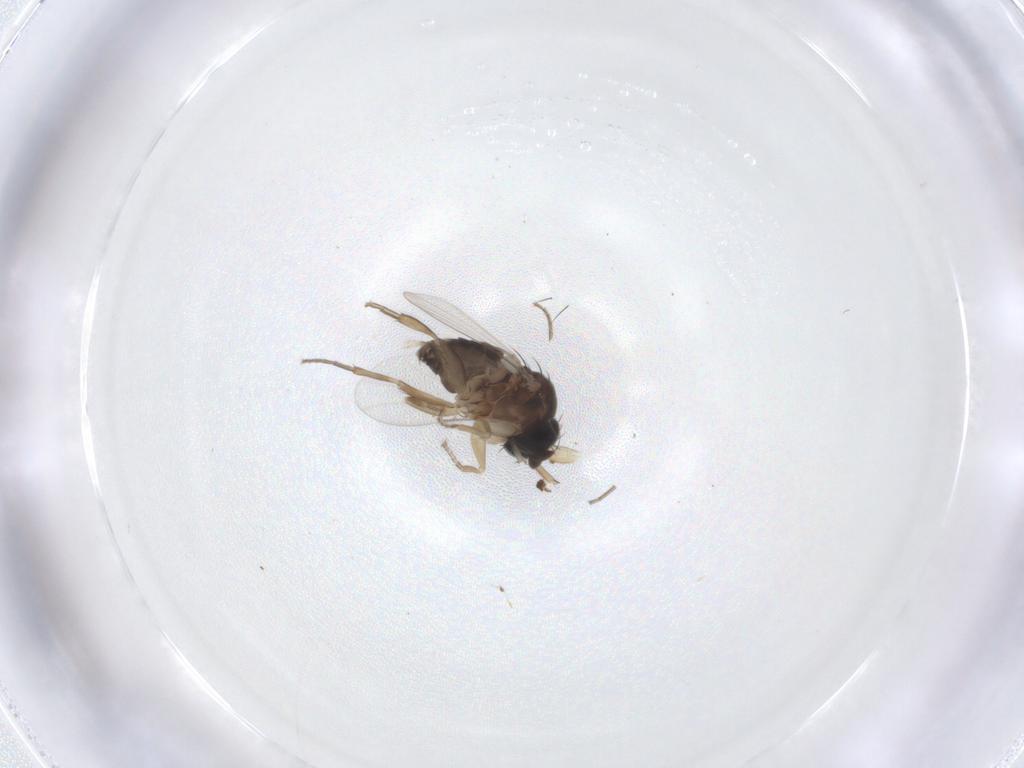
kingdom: Animalia
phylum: Arthropoda
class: Insecta
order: Diptera
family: Phoridae
